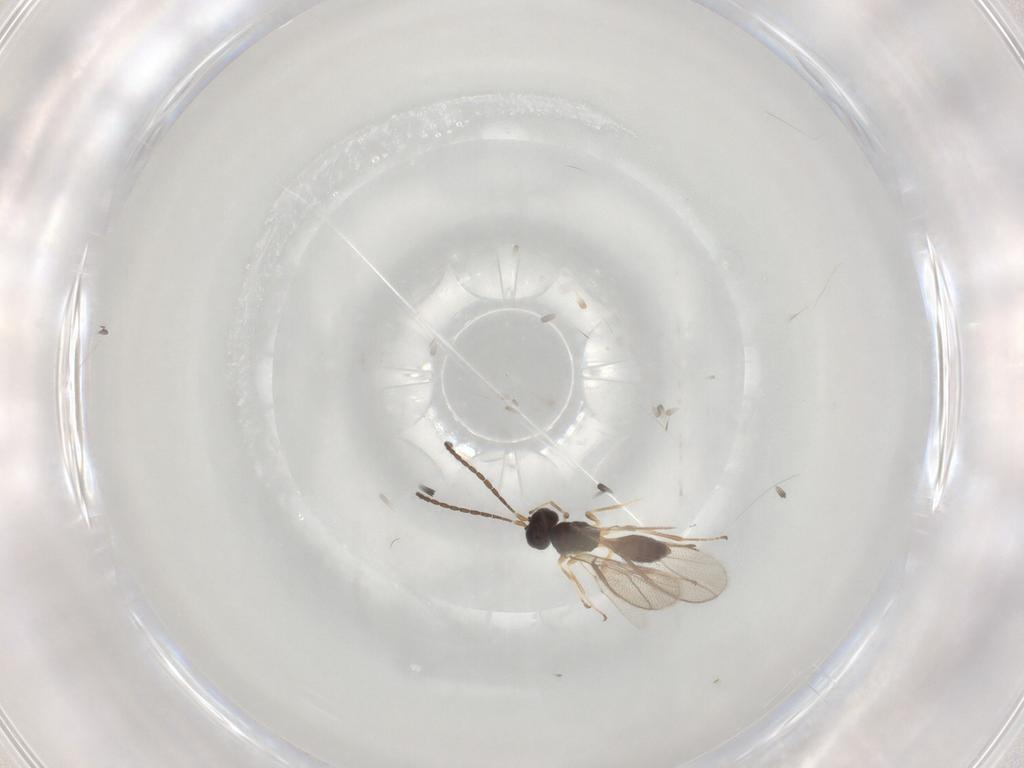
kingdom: Animalia
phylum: Arthropoda
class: Insecta
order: Hymenoptera
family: Braconidae
